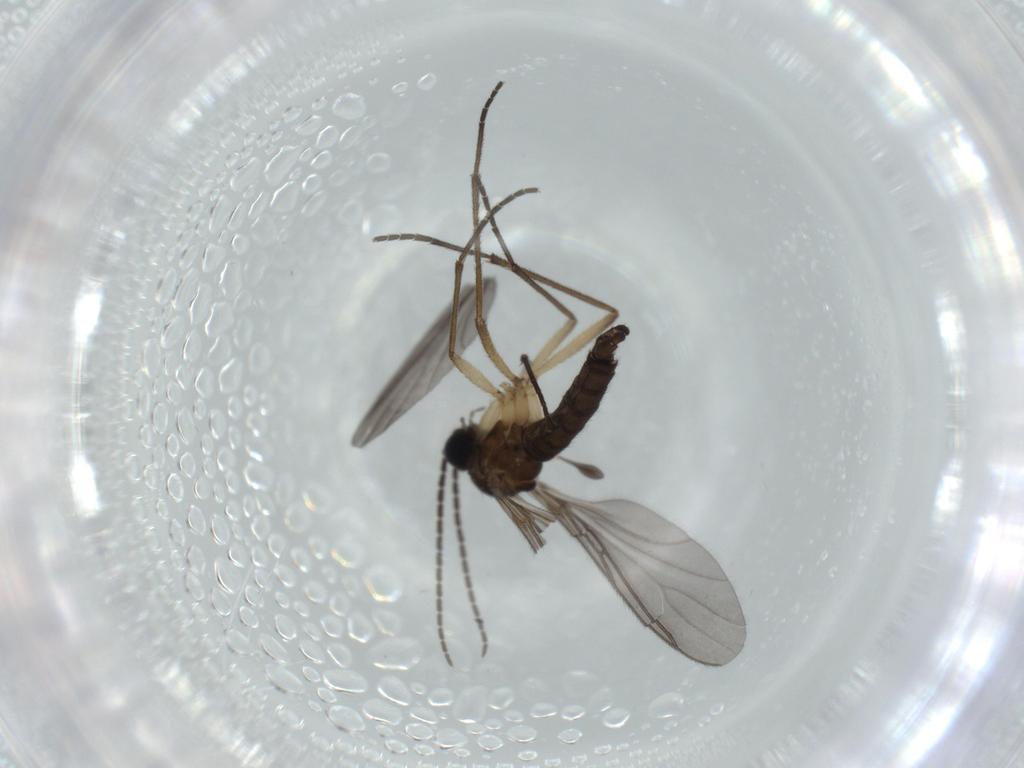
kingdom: Animalia
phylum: Arthropoda
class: Insecta
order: Diptera
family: Sciaridae
